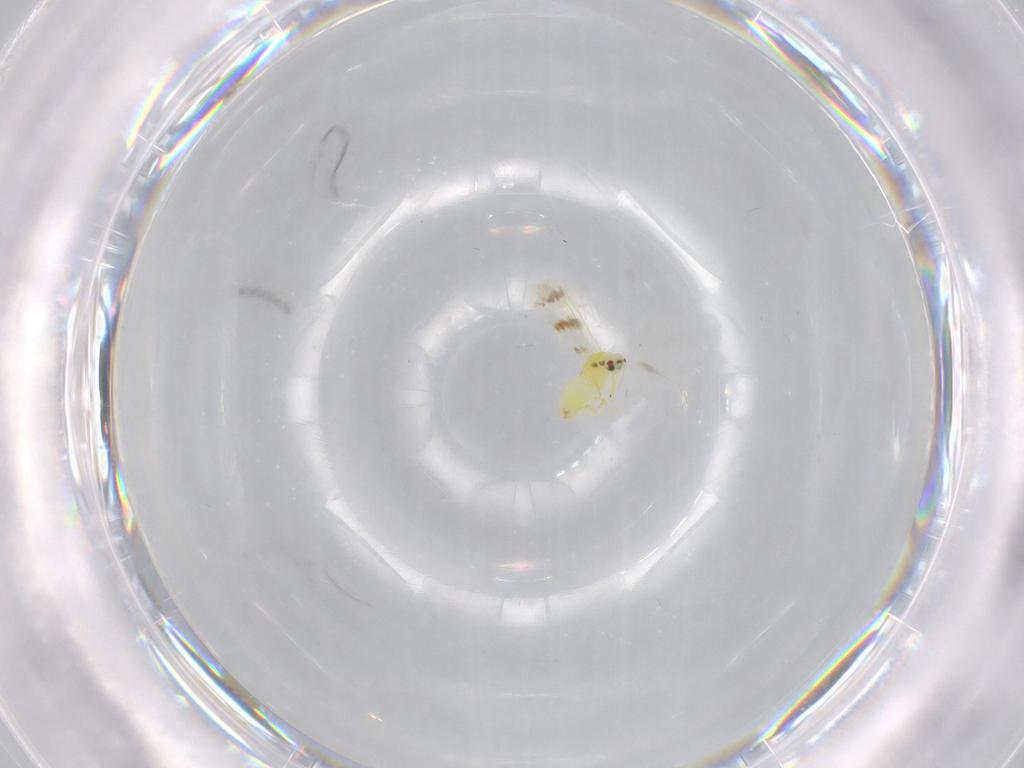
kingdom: Animalia
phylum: Arthropoda
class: Insecta
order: Hemiptera
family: Aleyrodidae
